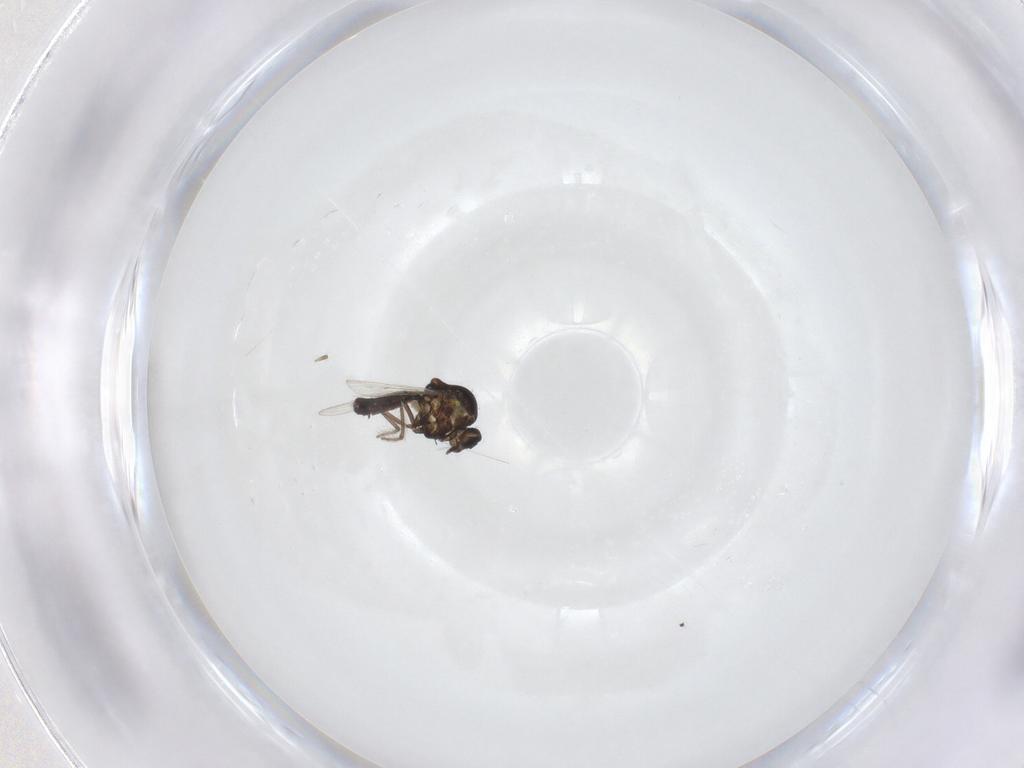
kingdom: Animalia
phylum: Arthropoda
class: Insecta
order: Diptera
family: Ceratopogonidae
